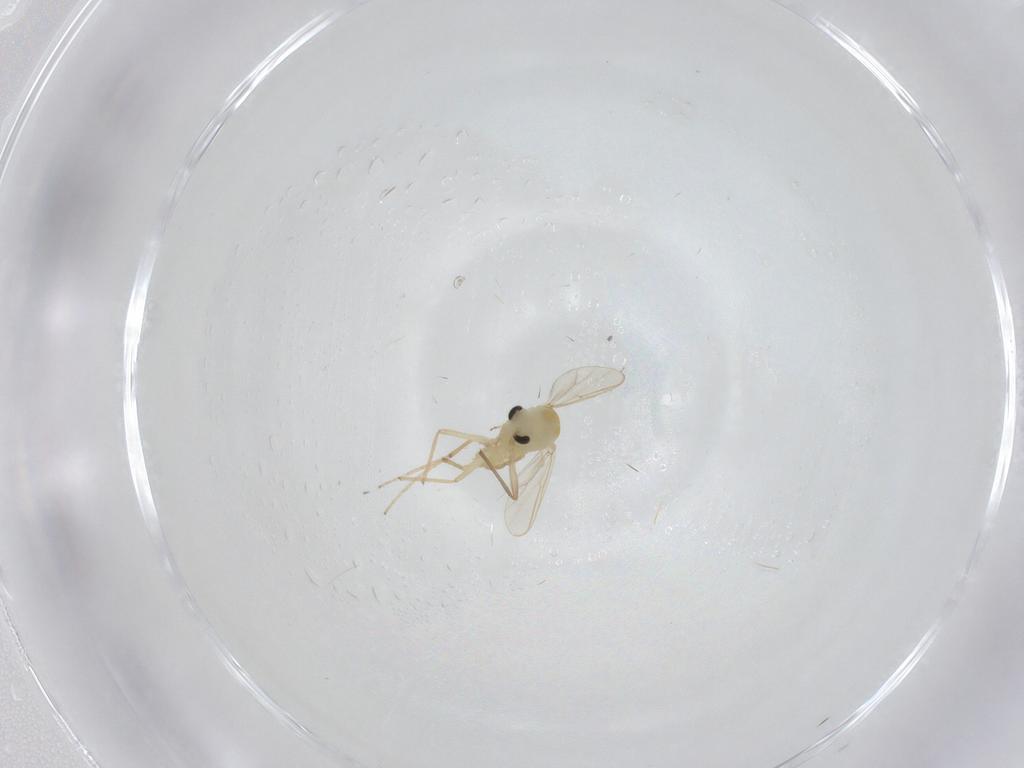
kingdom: Animalia
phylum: Arthropoda
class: Insecta
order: Diptera
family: Chironomidae
